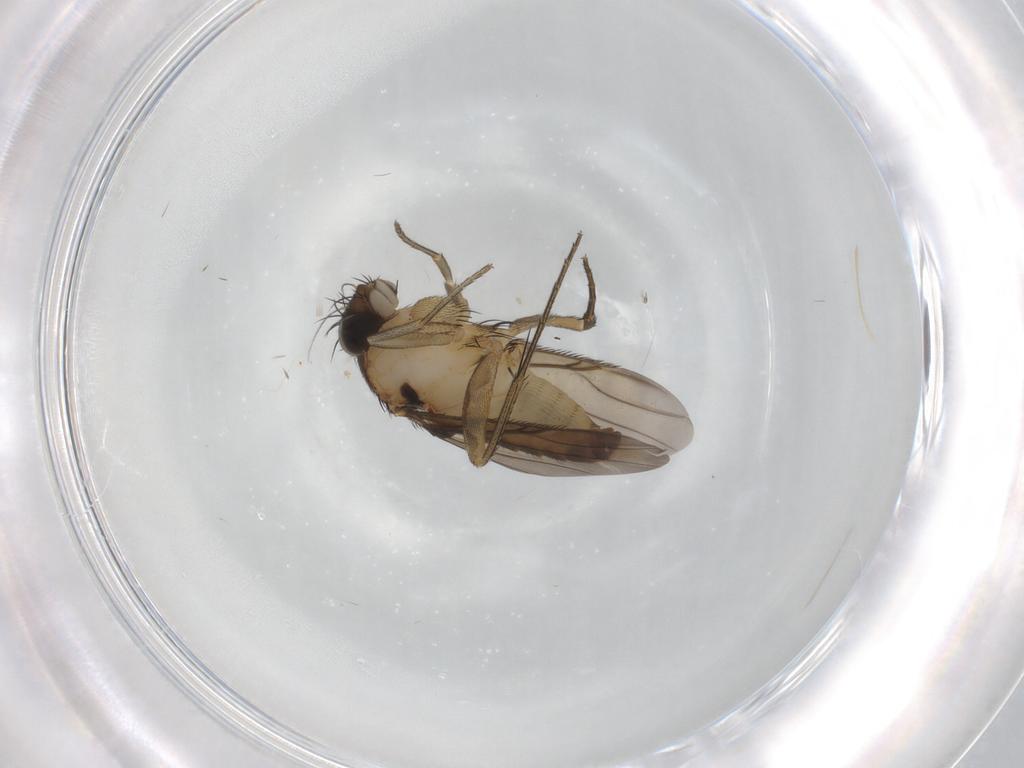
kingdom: Animalia
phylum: Arthropoda
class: Insecta
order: Diptera
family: Phoridae
